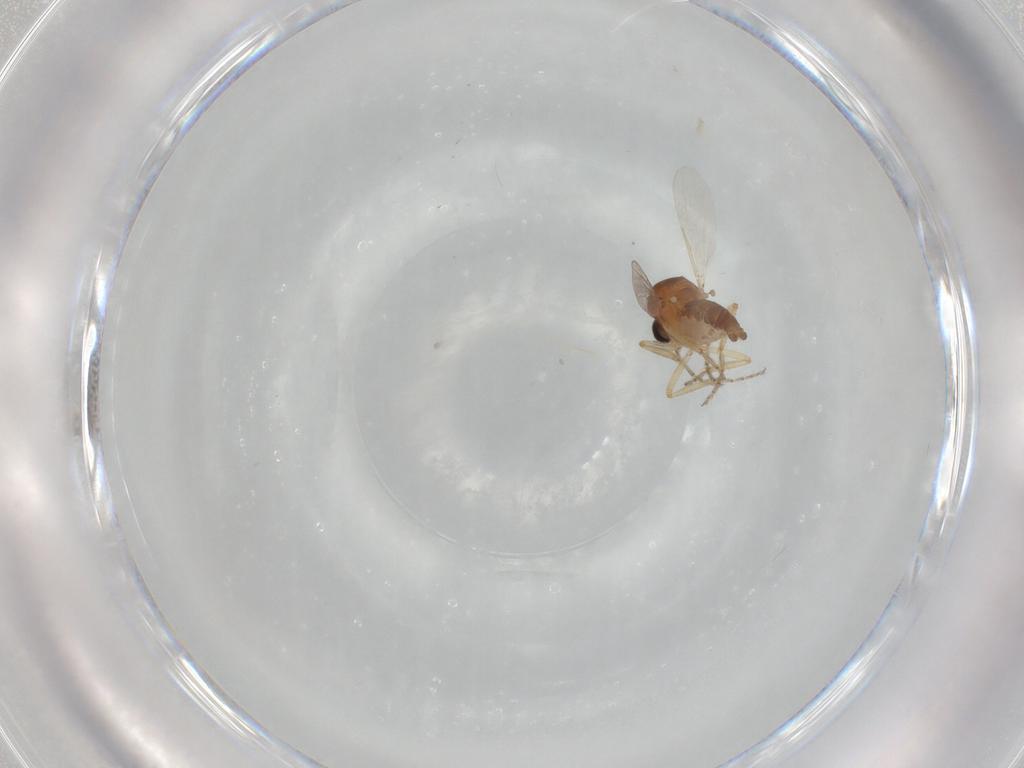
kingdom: Animalia
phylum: Arthropoda
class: Insecta
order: Diptera
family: Ceratopogonidae
